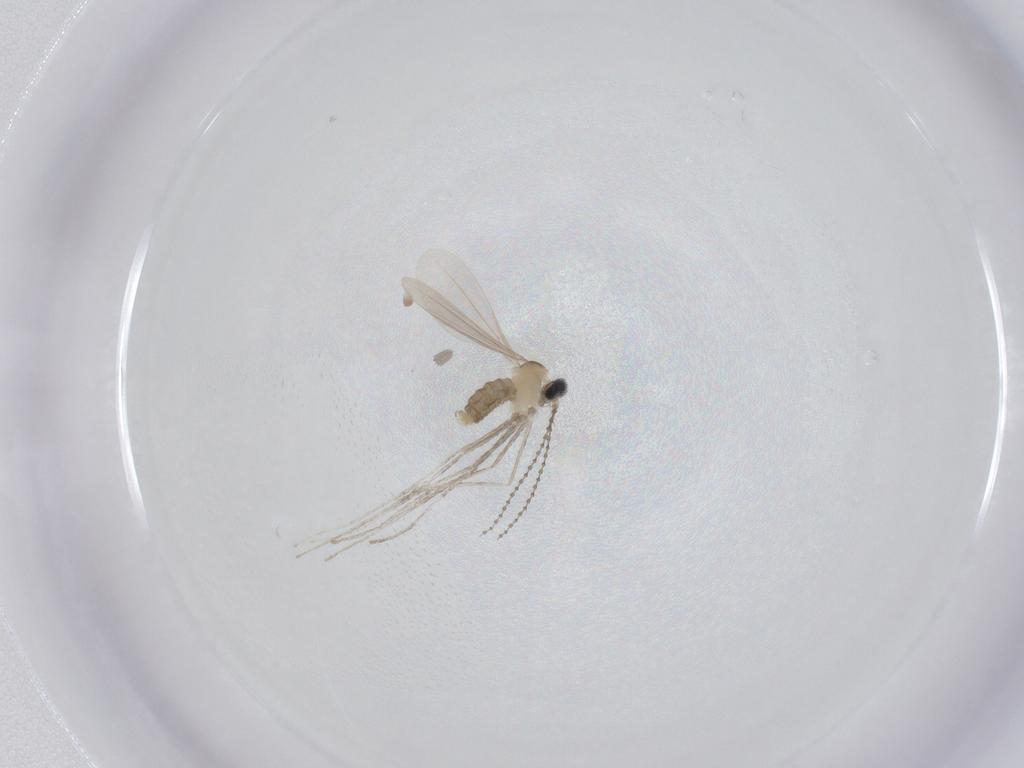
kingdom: Animalia
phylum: Arthropoda
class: Insecta
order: Diptera
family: Cecidomyiidae
